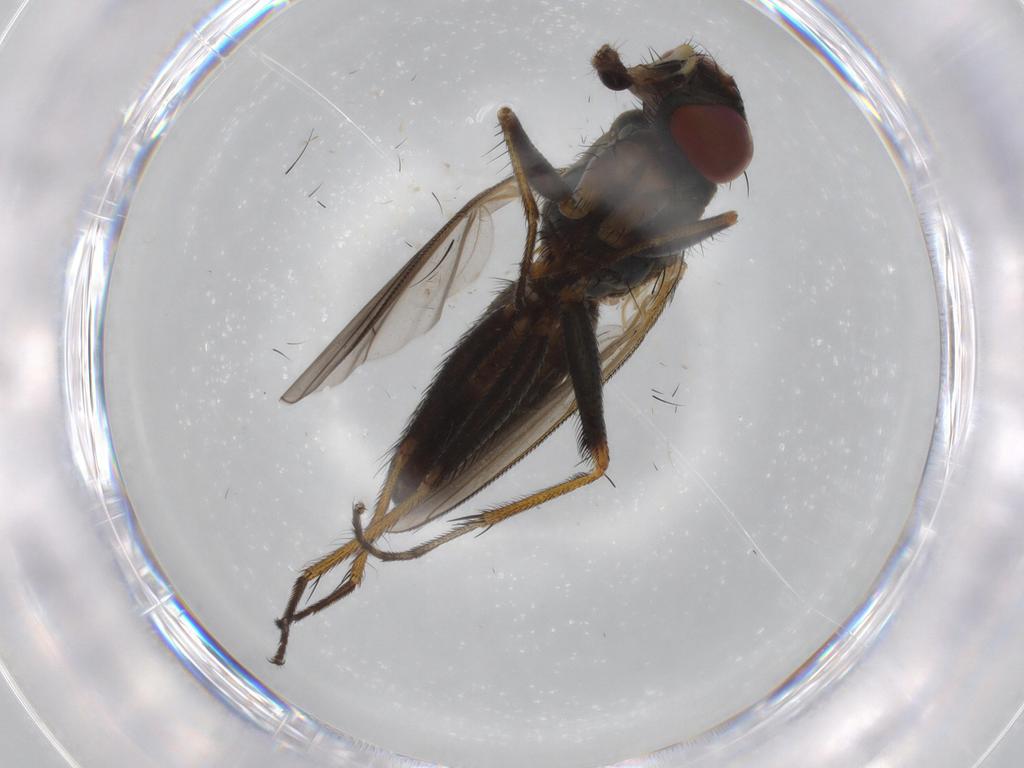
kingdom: Animalia
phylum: Arthropoda
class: Insecta
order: Diptera
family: Muscidae
